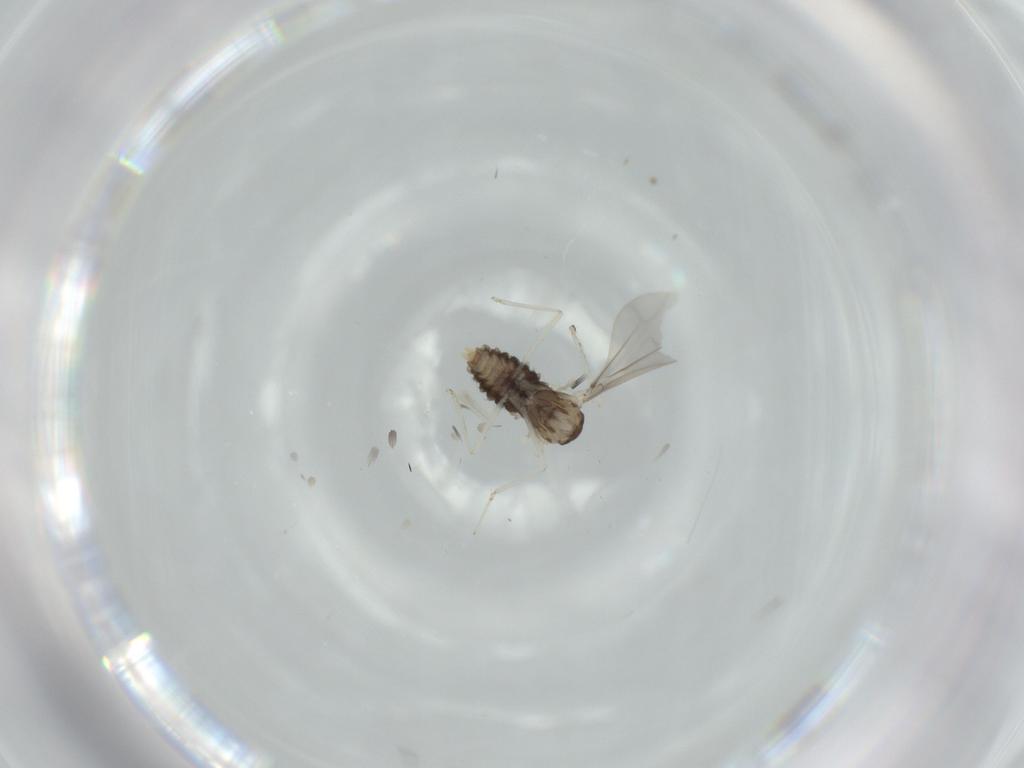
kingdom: Animalia
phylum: Arthropoda
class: Insecta
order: Diptera
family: Cecidomyiidae
